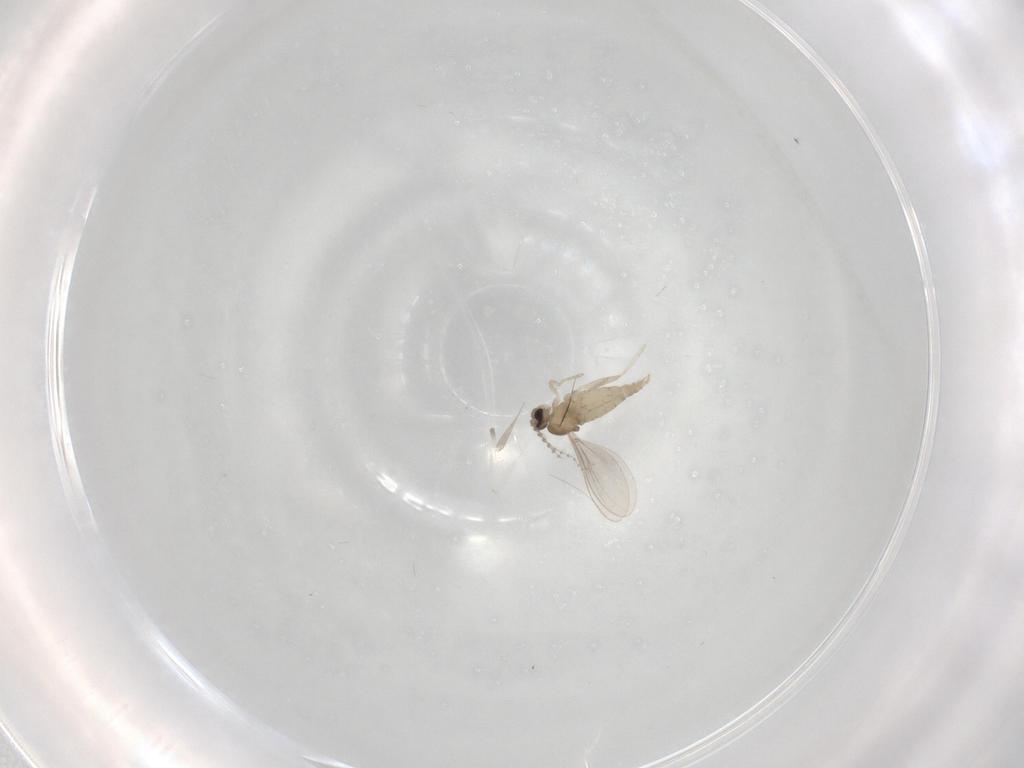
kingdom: Animalia
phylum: Arthropoda
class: Insecta
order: Diptera
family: Cecidomyiidae
